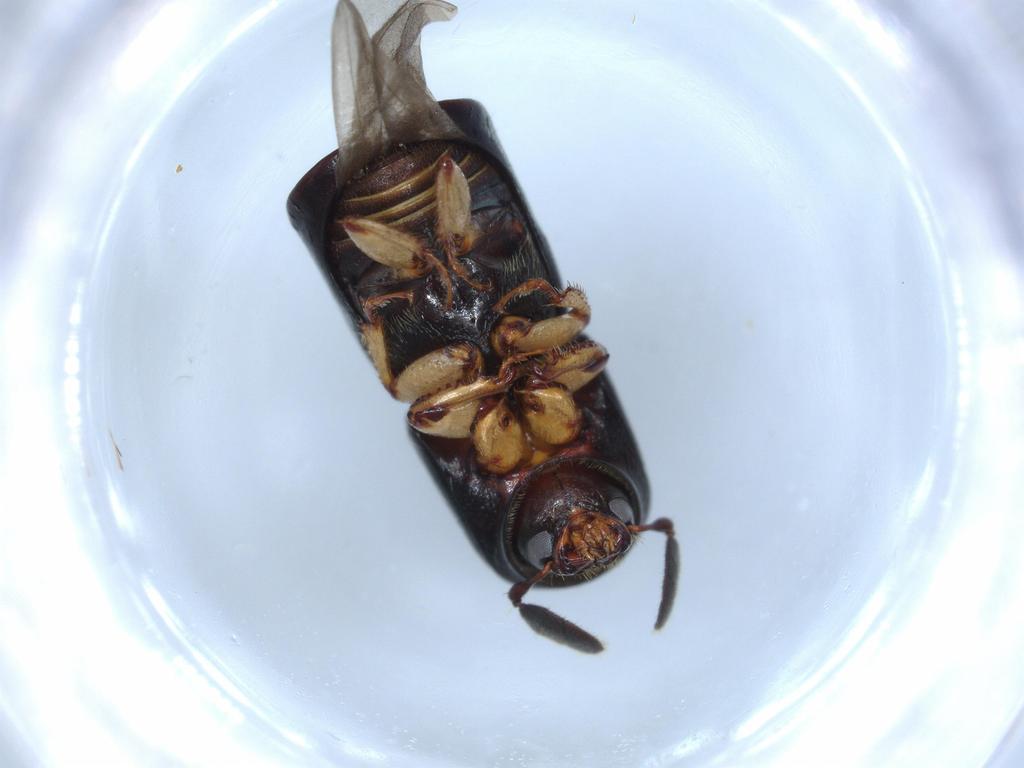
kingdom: Animalia
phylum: Arthropoda
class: Insecta
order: Coleoptera
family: Curculionidae
